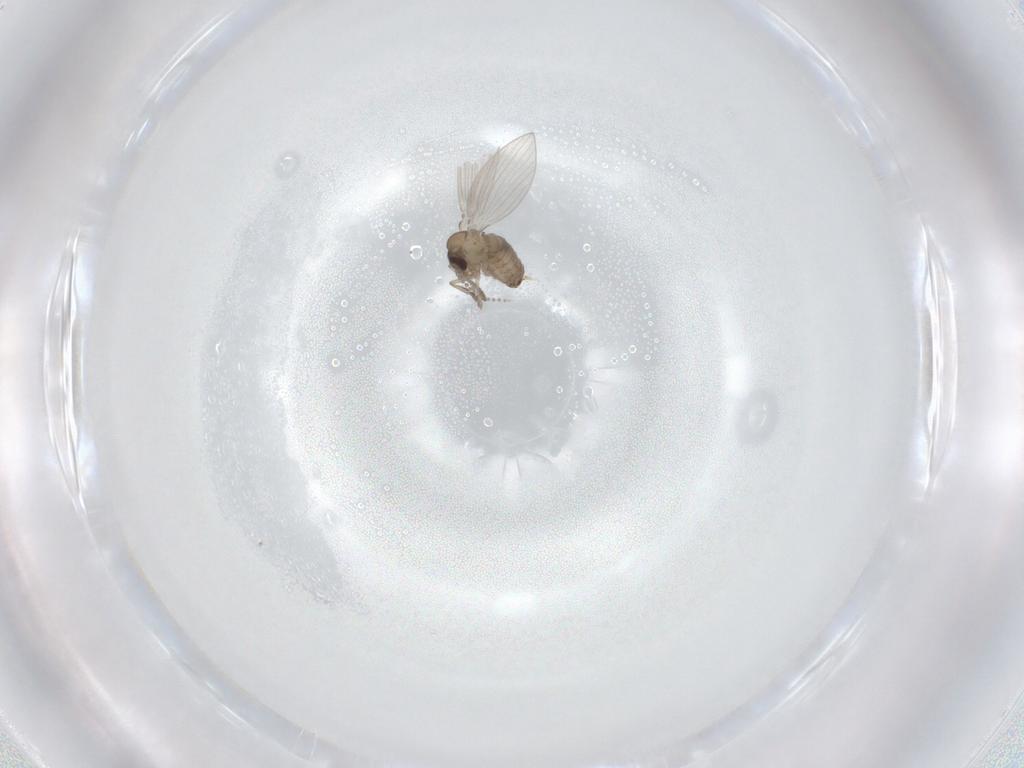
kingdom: Animalia
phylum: Arthropoda
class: Insecta
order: Diptera
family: Psychodidae
